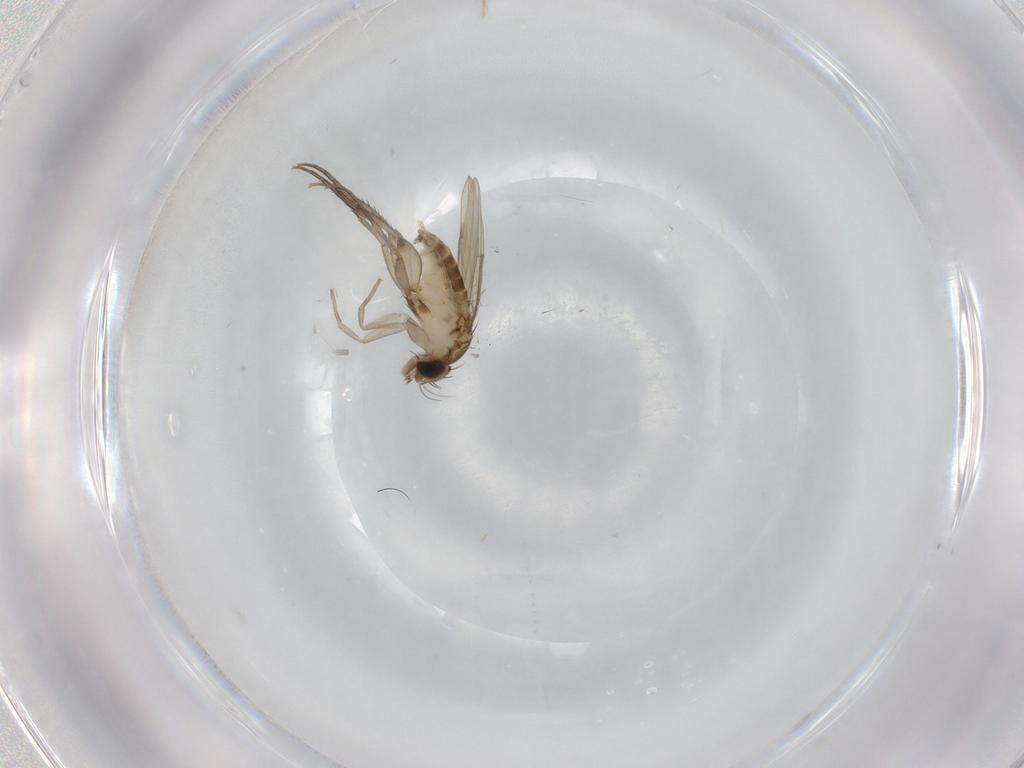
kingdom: Animalia
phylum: Arthropoda
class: Insecta
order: Diptera
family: Phoridae
